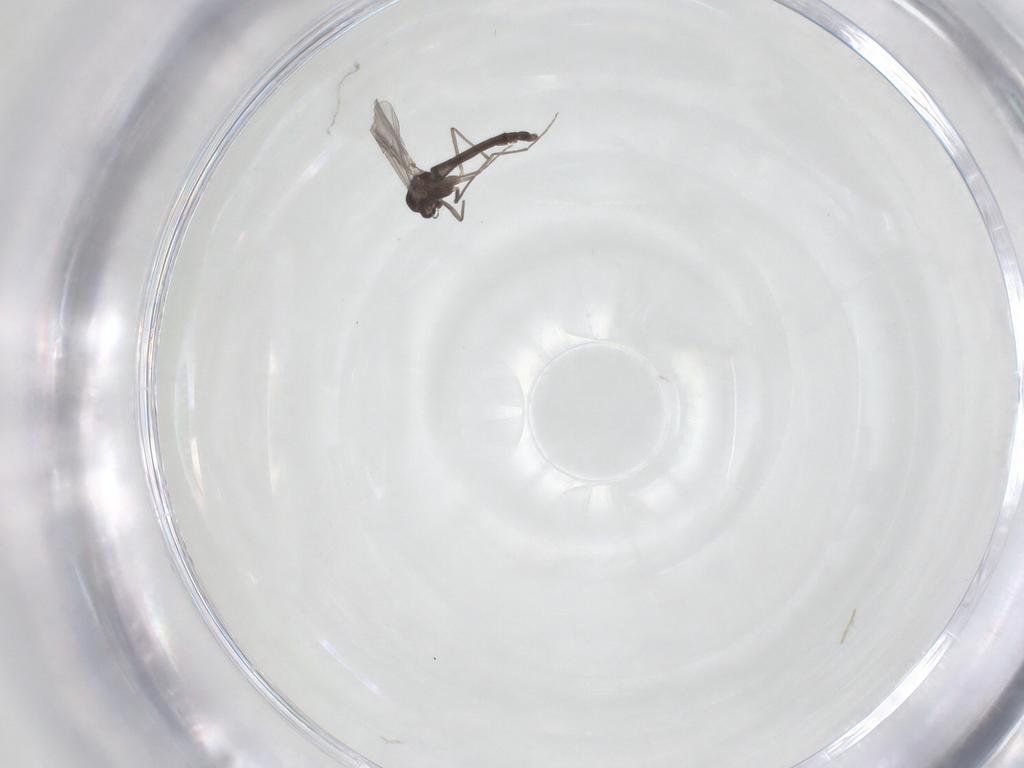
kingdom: Animalia
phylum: Arthropoda
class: Insecta
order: Diptera
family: Chironomidae
